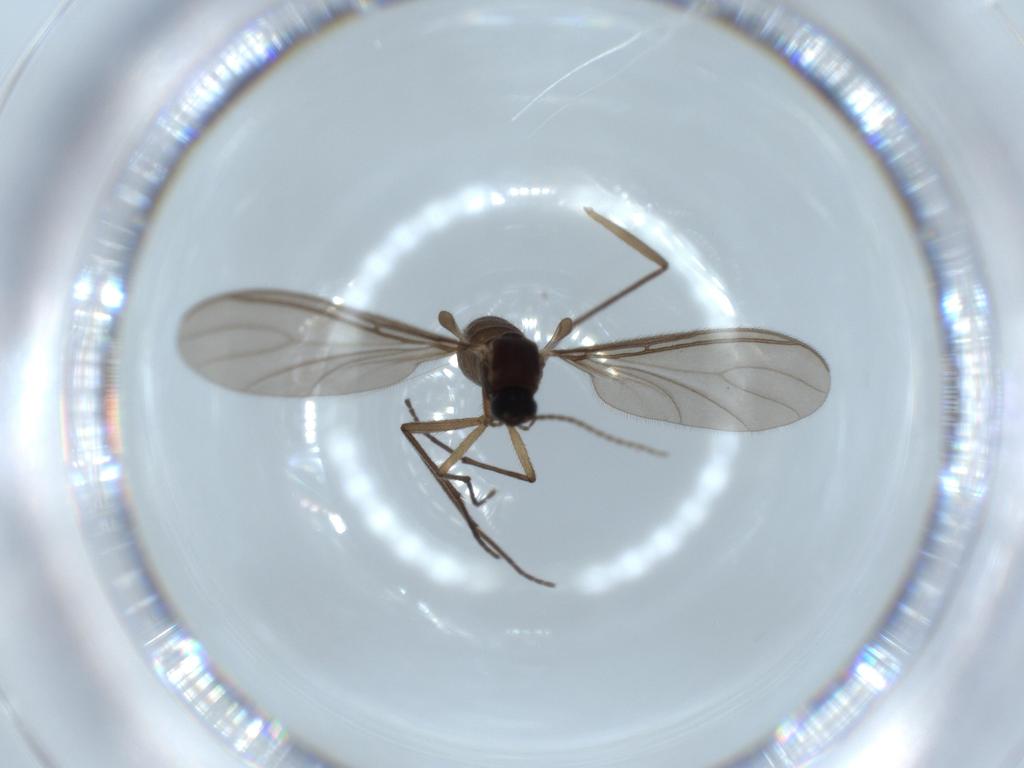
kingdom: Animalia
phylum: Arthropoda
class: Insecta
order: Diptera
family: Sciaridae
